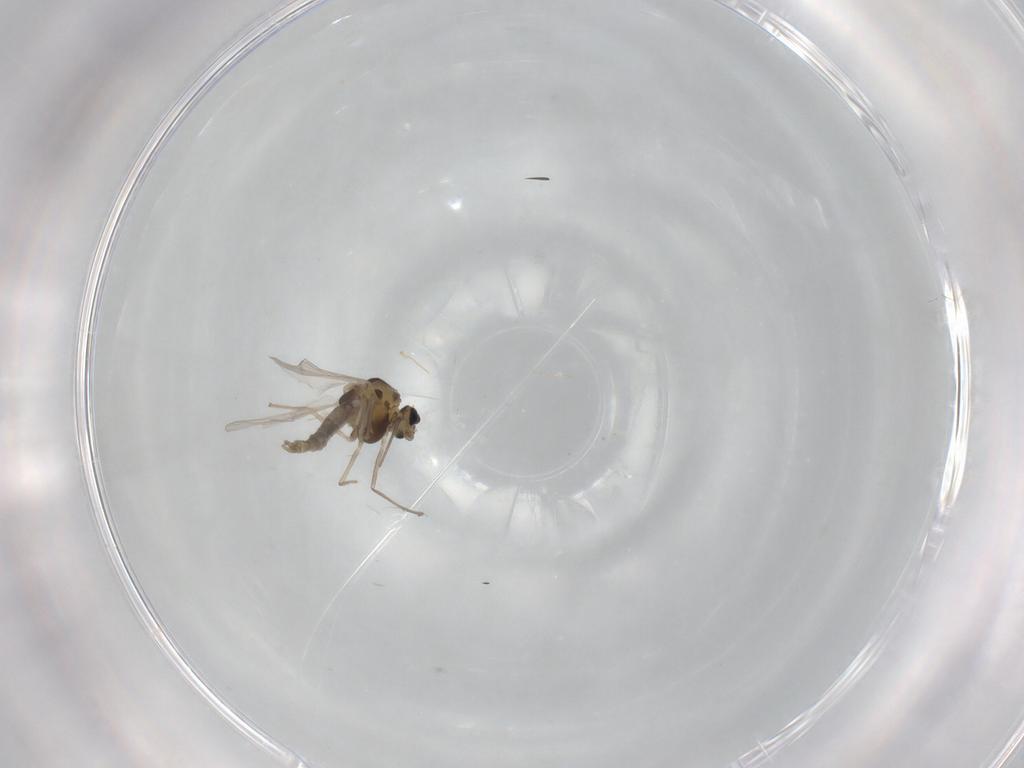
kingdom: Animalia
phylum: Arthropoda
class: Insecta
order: Diptera
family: Chironomidae
